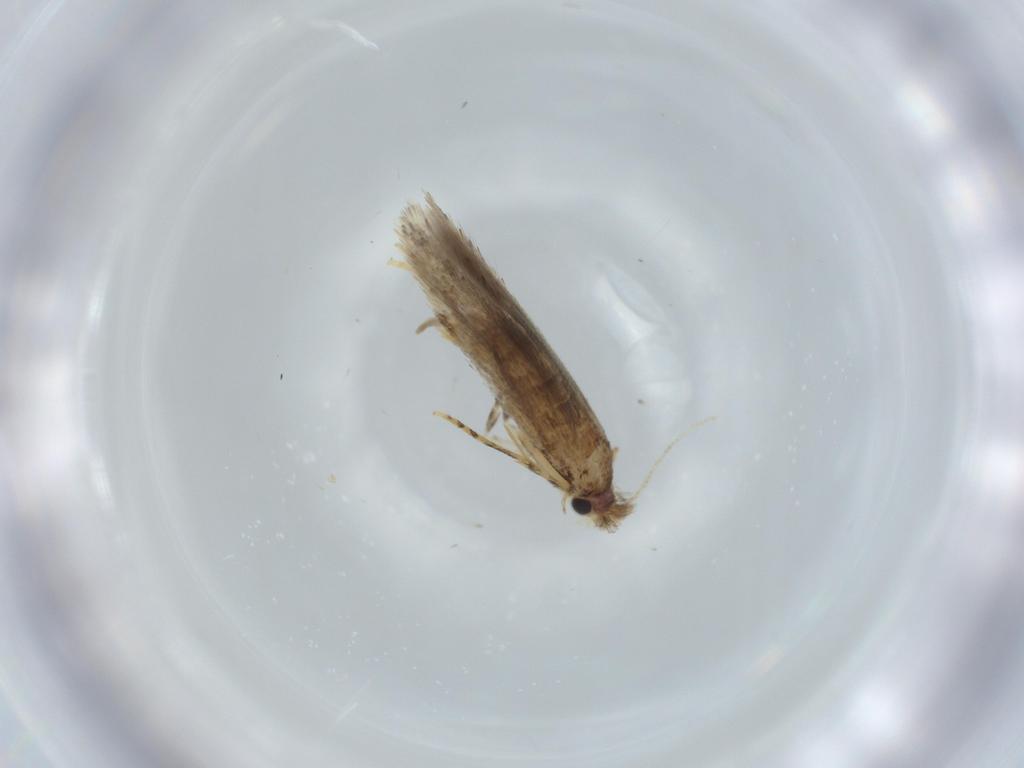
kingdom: Animalia
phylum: Arthropoda
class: Insecta
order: Lepidoptera
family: Tineidae
